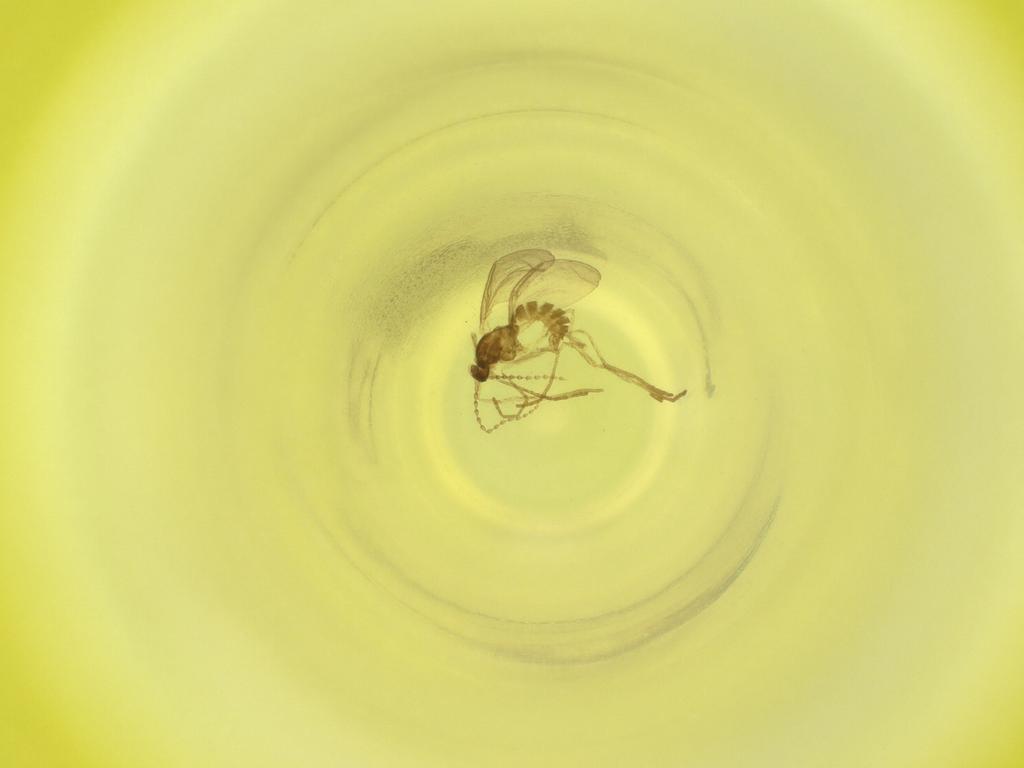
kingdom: Animalia
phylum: Arthropoda
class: Insecta
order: Diptera
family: Cecidomyiidae
